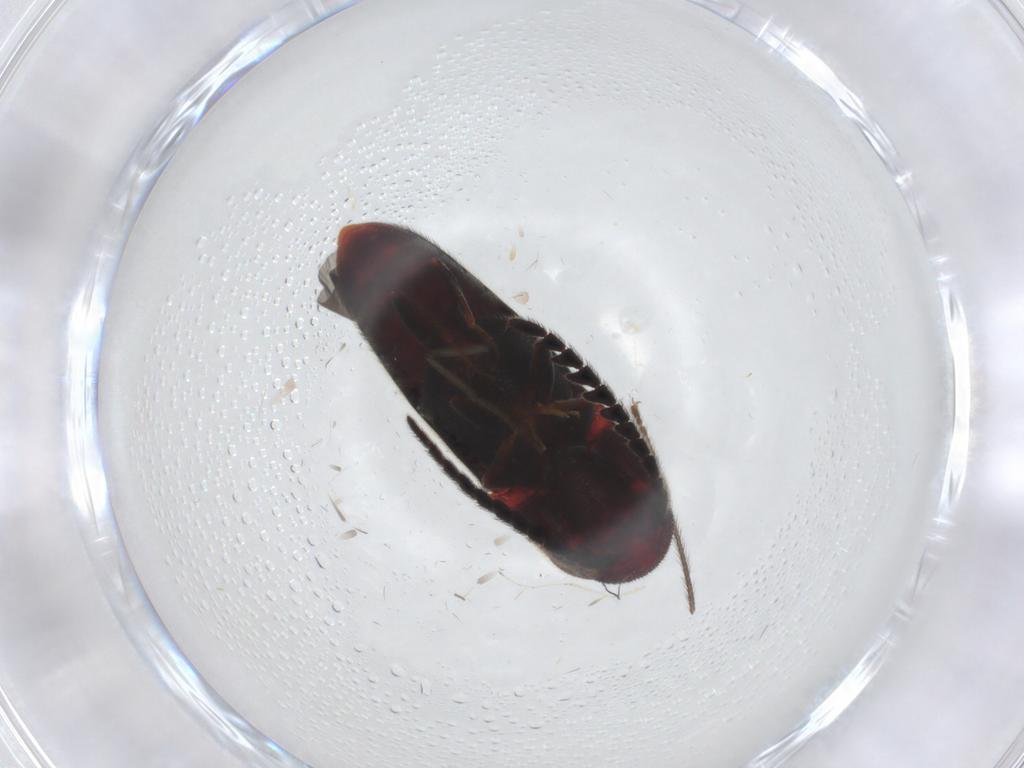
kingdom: Animalia
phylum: Arthropoda
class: Insecta
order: Coleoptera
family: Eucnemidae
